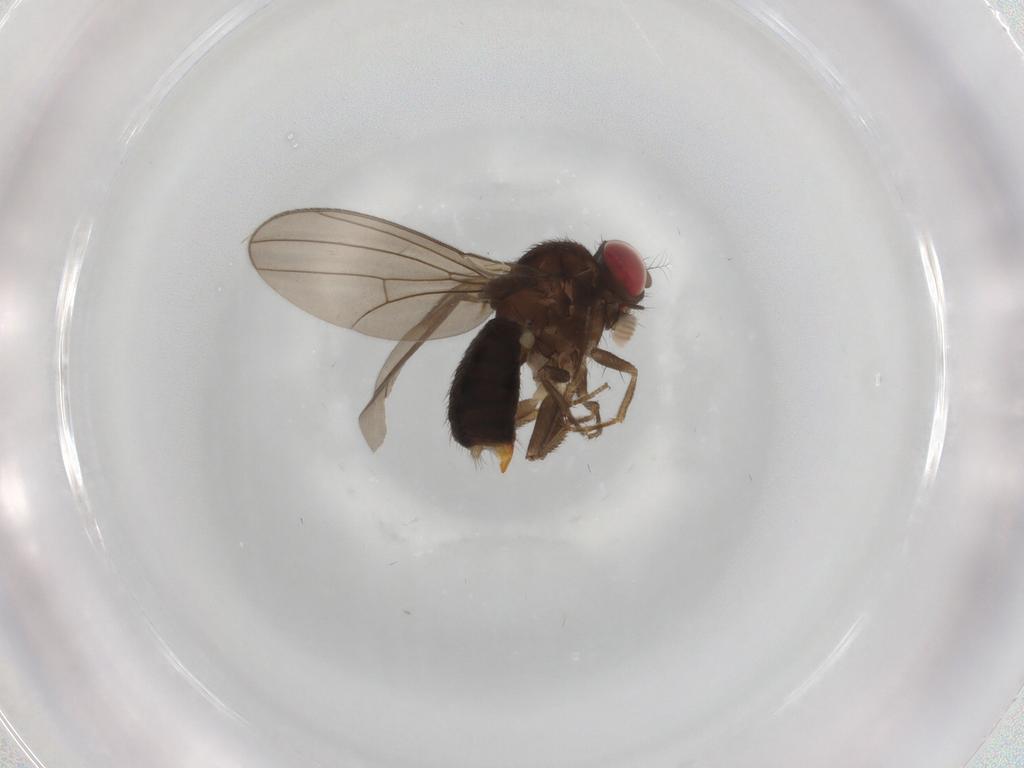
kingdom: Animalia
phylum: Arthropoda
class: Insecta
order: Diptera
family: Drosophilidae
